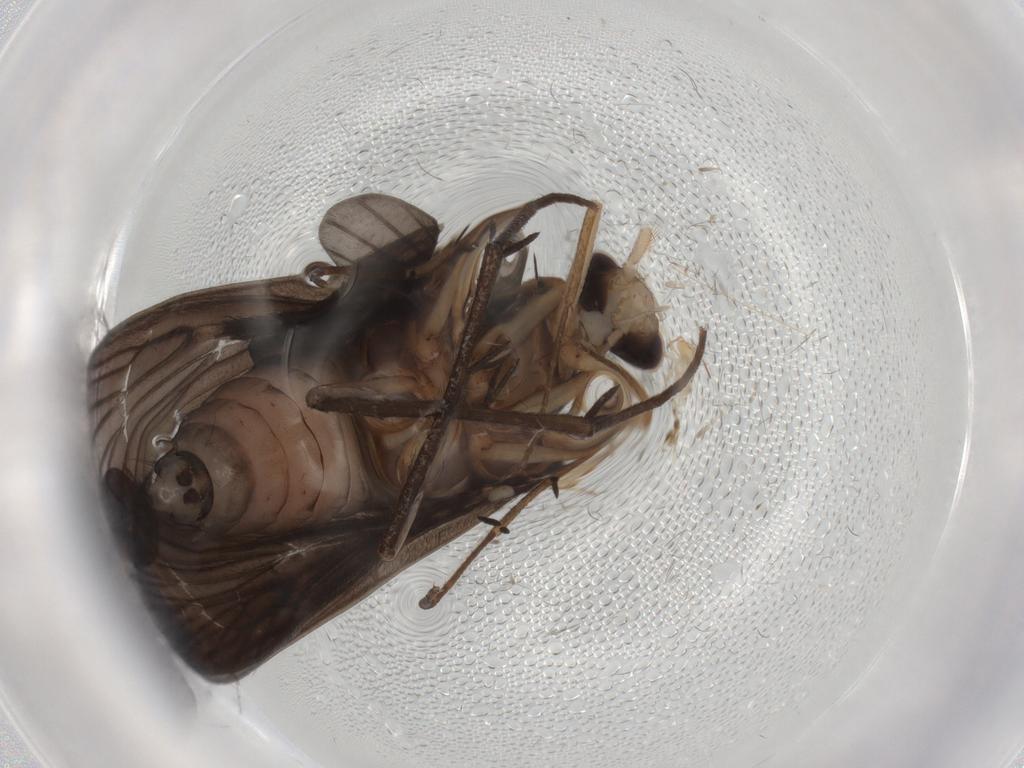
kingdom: Animalia
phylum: Arthropoda
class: Insecta
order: Trichoptera
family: Philopotamidae
